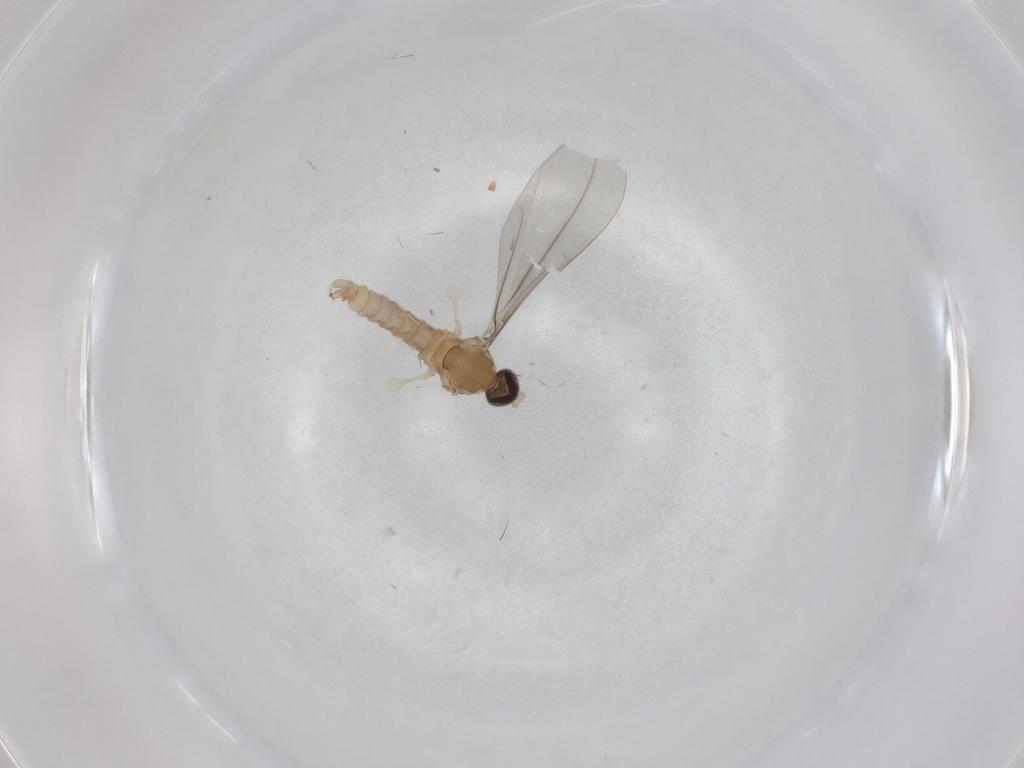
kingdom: Animalia
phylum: Arthropoda
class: Insecta
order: Diptera
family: Cecidomyiidae
